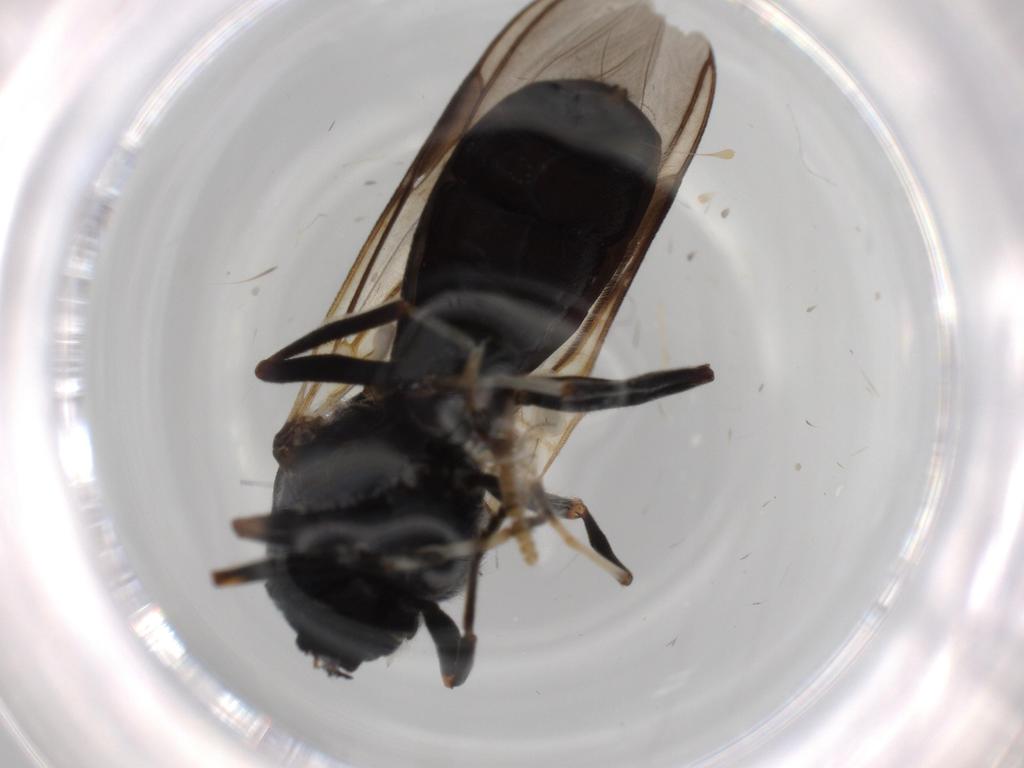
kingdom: Animalia
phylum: Arthropoda
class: Insecta
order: Diptera
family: Mycetophilidae
